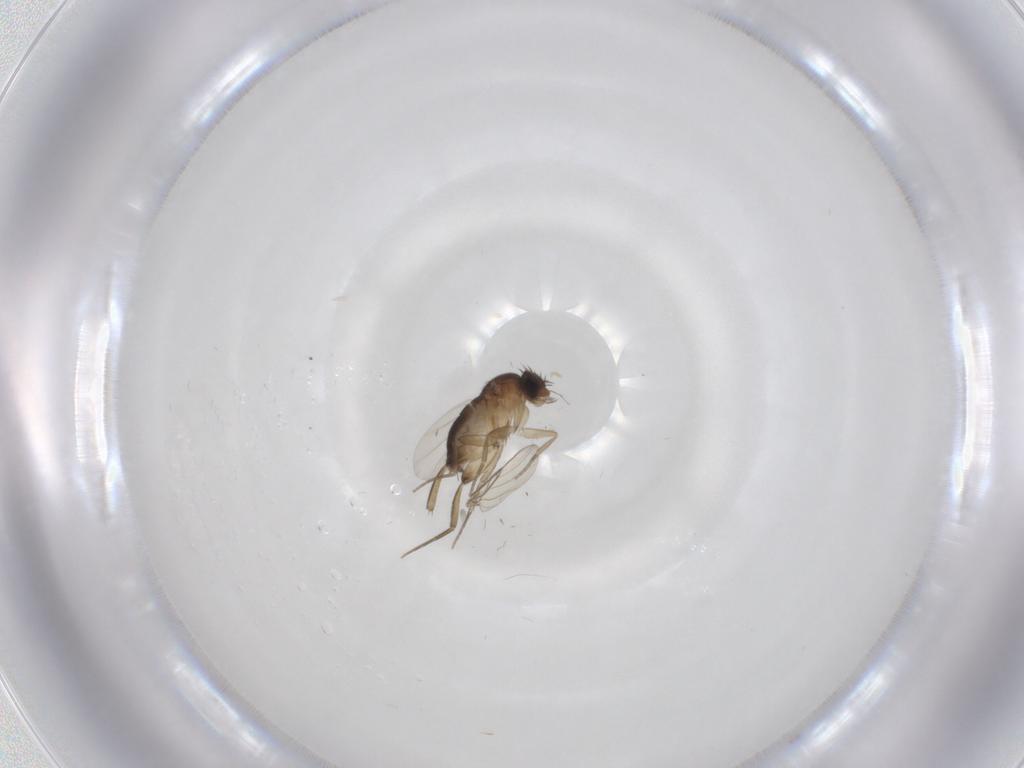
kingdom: Animalia
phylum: Arthropoda
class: Insecta
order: Diptera
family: Phoridae
